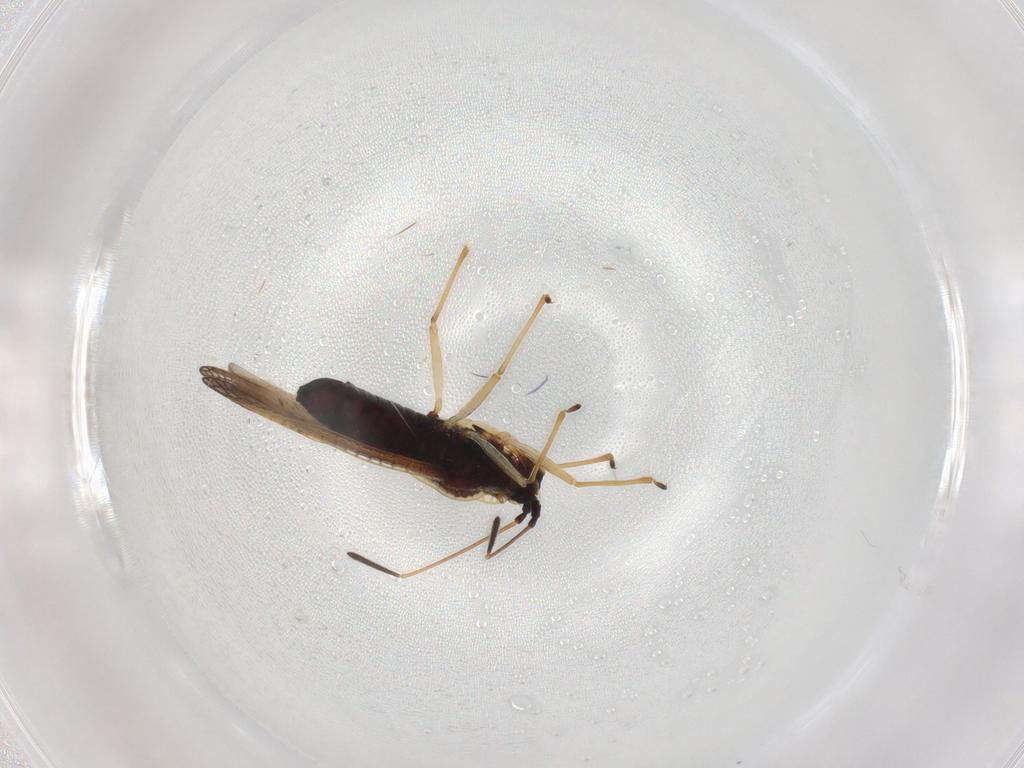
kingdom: Animalia
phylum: Arthropoda
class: Insecta
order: Hemiptera
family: Tingidae
